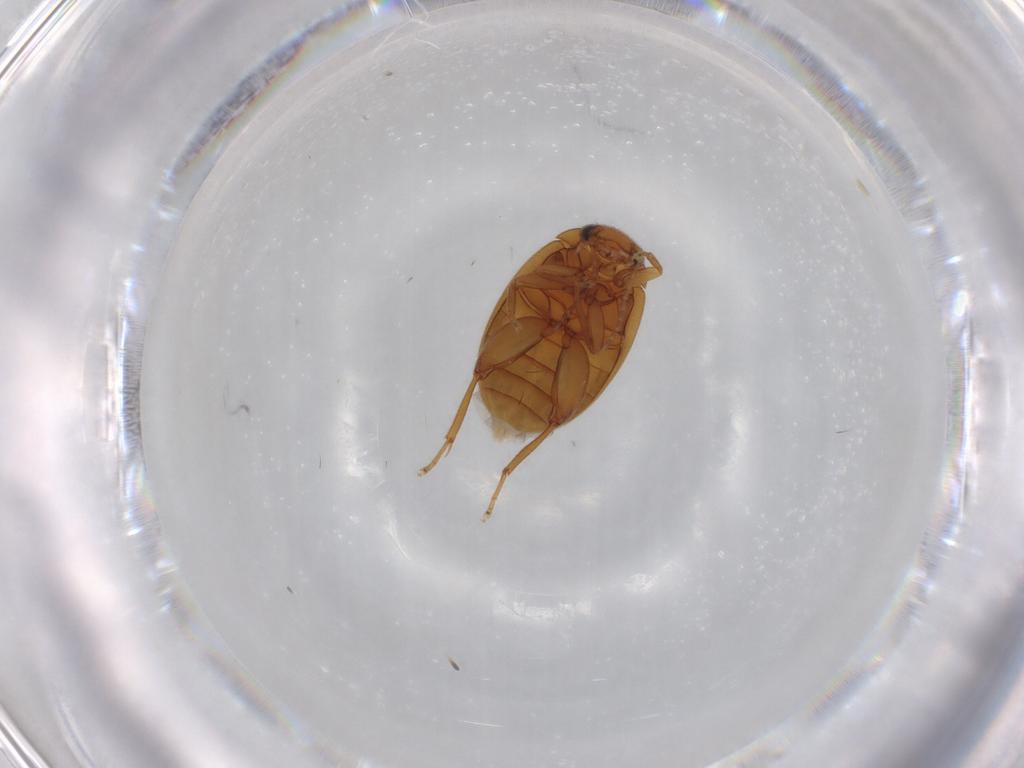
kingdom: Animalia
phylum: Arthropoda
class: Insecta
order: Coleoptera
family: Scirtidae
